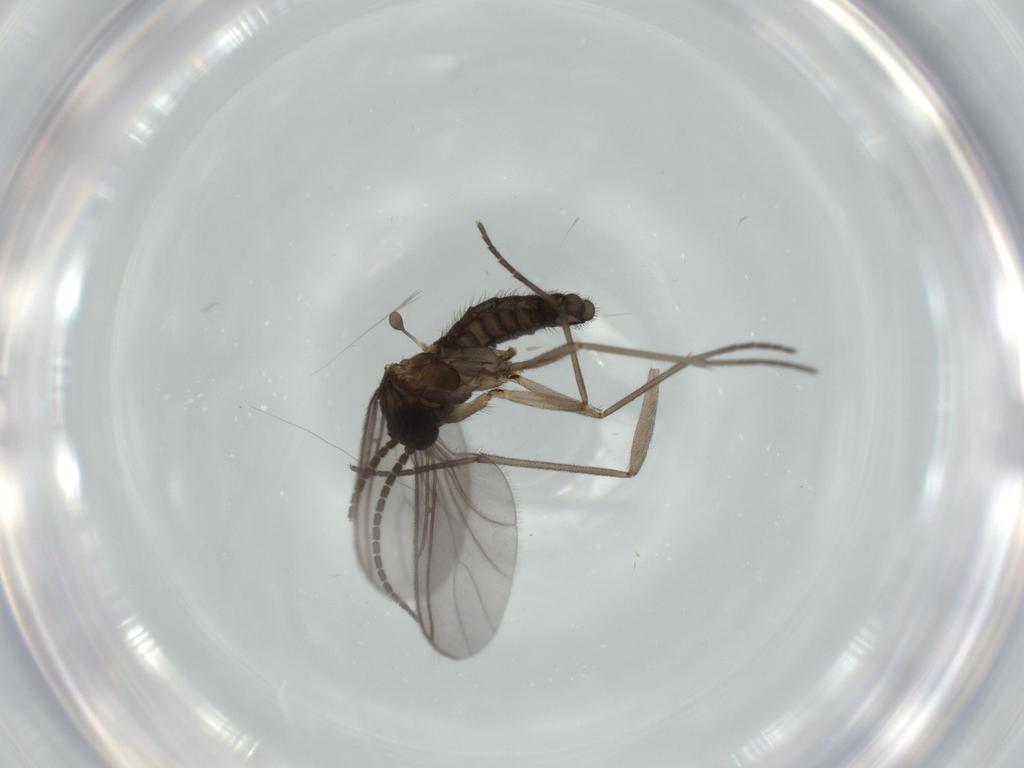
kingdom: Animalia
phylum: Arthropoda
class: Insecta
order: Diptera
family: Sciaridae
